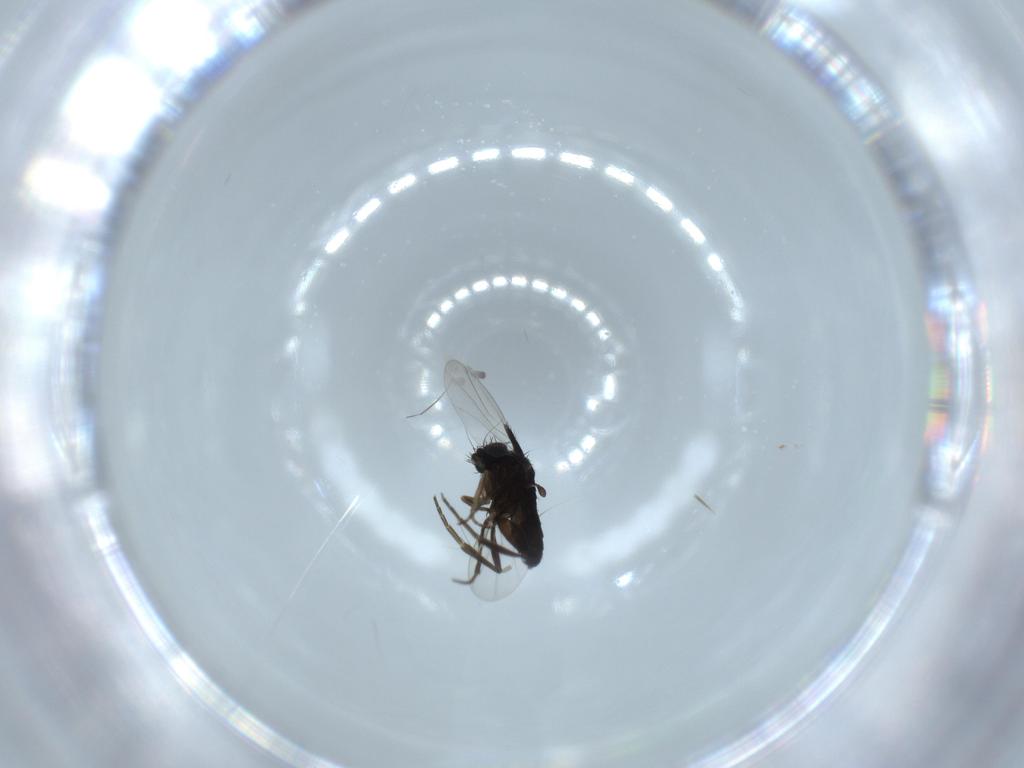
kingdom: Animalia
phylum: Arthropoda
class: Insecta
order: Diptera
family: Phoridae
